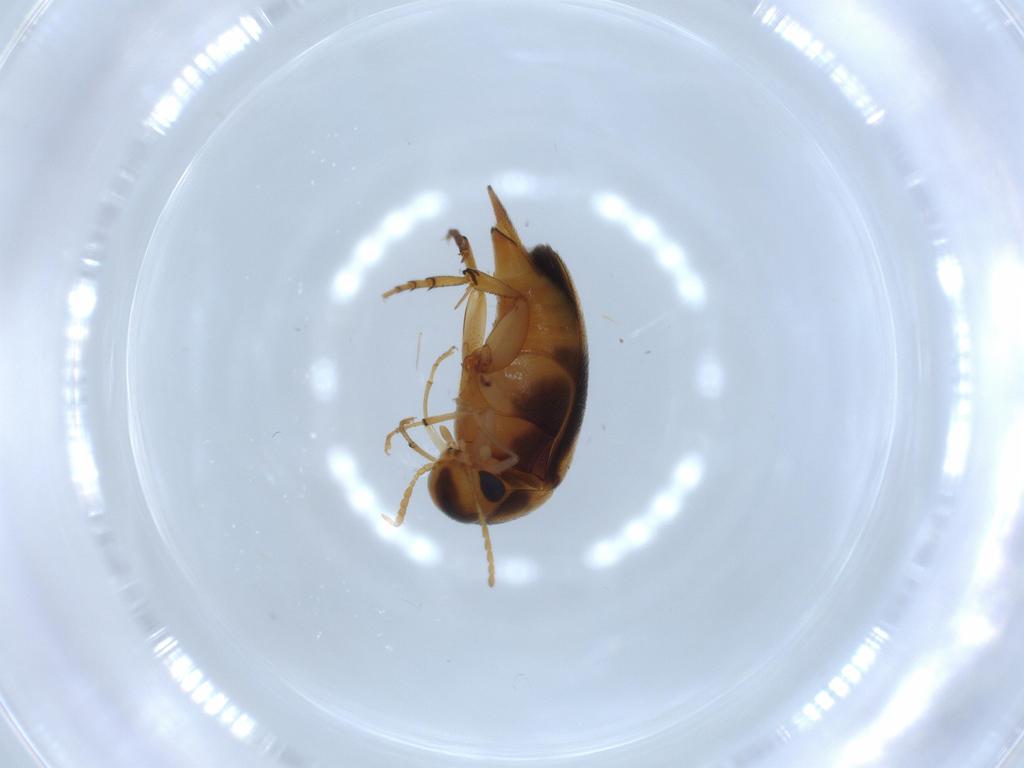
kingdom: Animalia
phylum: Arthropoda
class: Insecta
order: Coleoptera
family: Mordellidae
